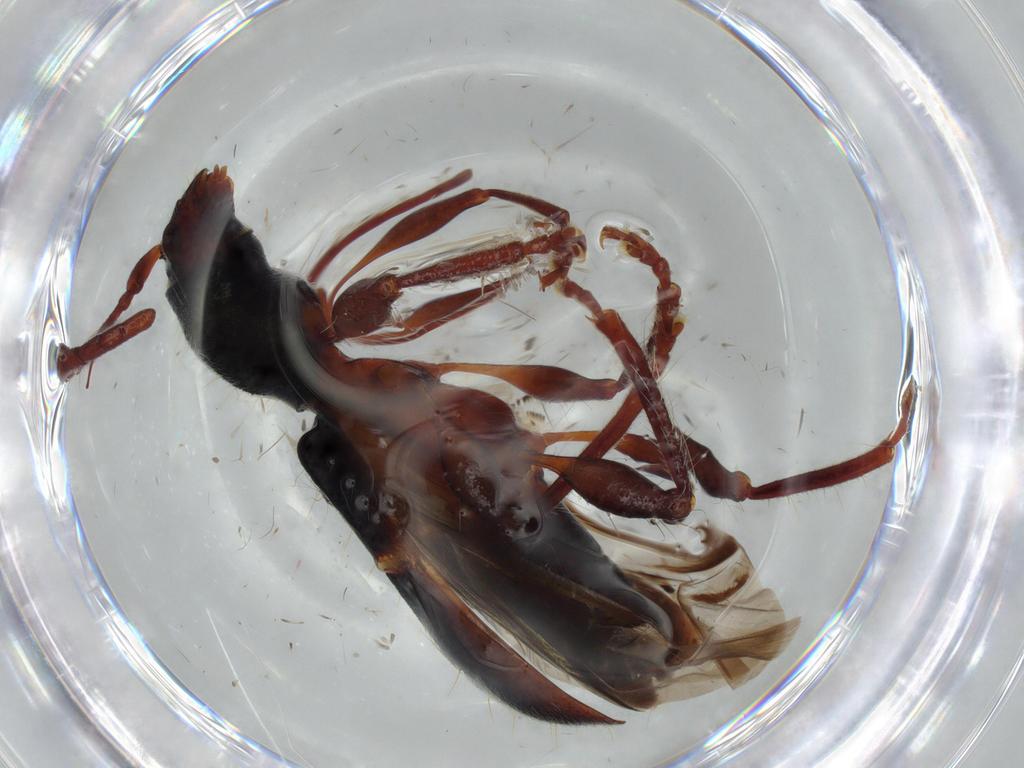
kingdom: Animalia
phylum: Arthropoda
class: Insecta
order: Coleoptera
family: Cerambycidae
